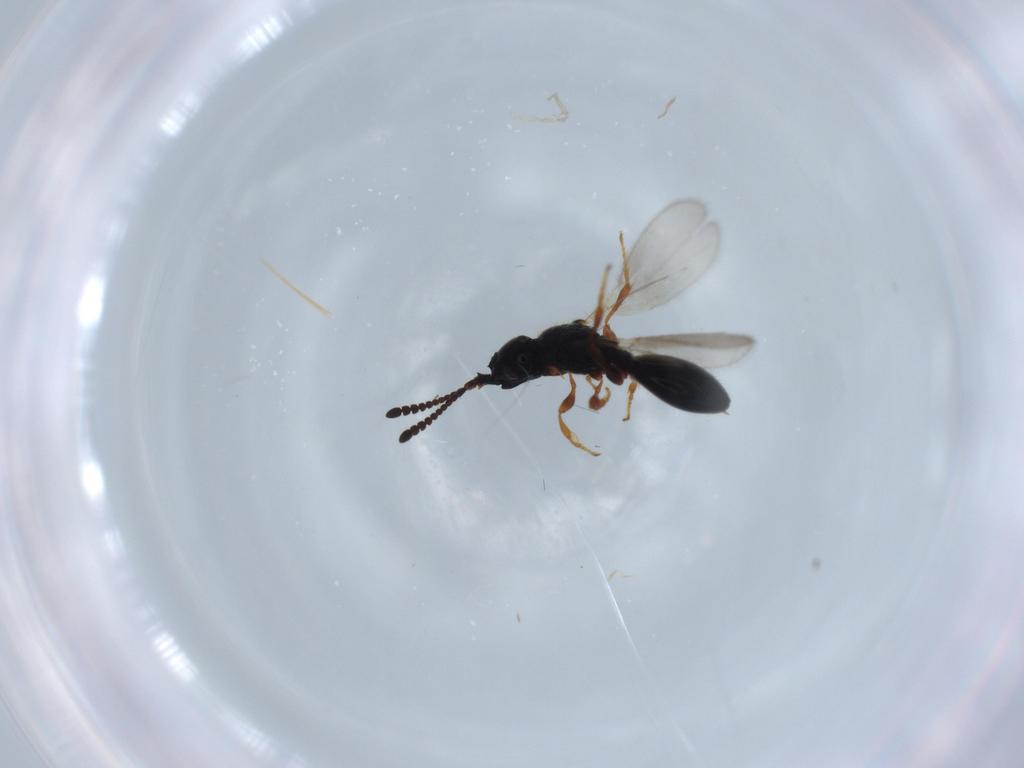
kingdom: Animalia
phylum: Arthropoda
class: Insecta
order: Hymenoptera
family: Diapriidae
